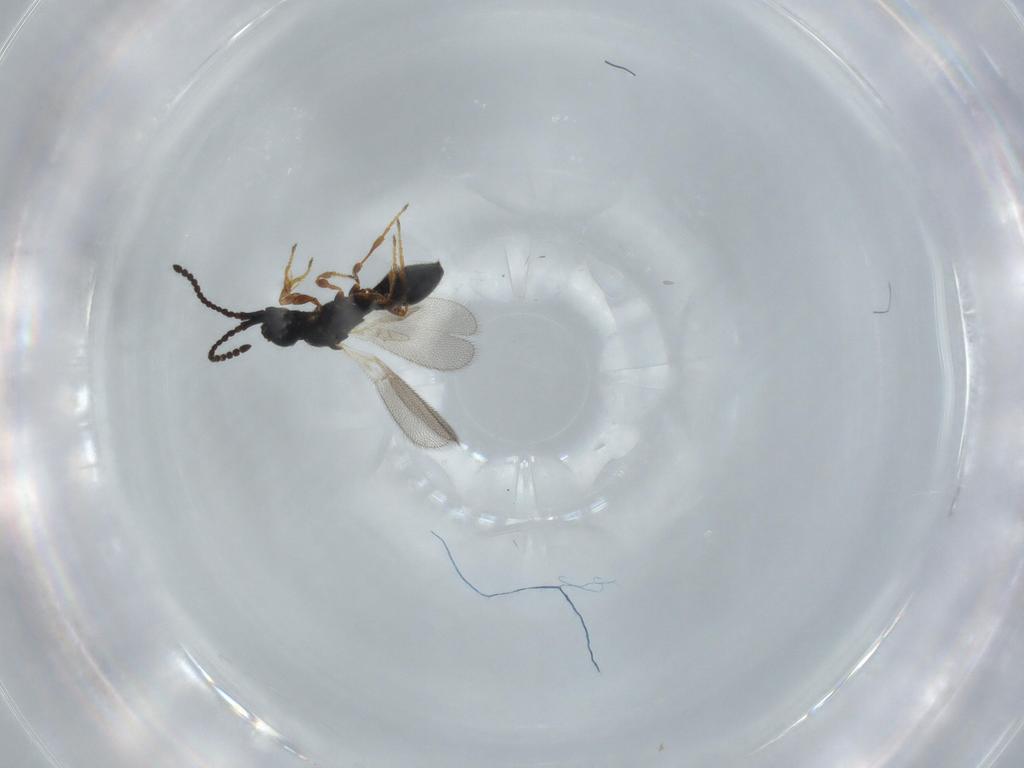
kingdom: Animalia
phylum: Arthropoda
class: Insecta
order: Hymenoptera
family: Diapriidae
